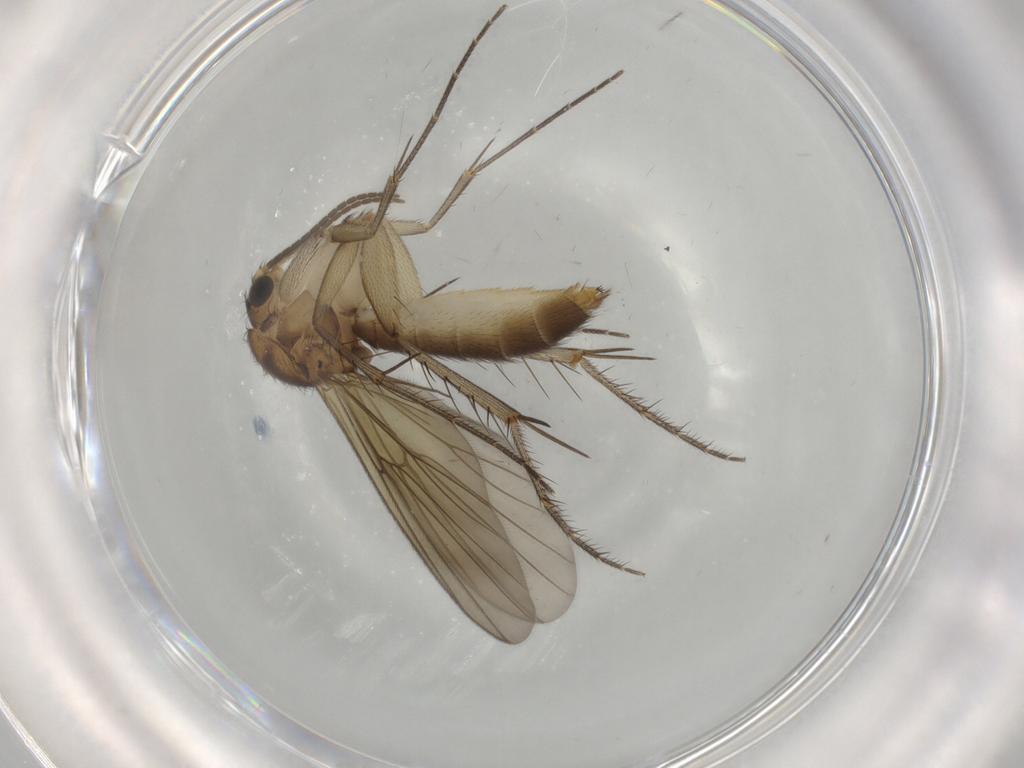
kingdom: Animalia
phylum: Arthropoda
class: Insecta
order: Diptera
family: Mycetophilidae
